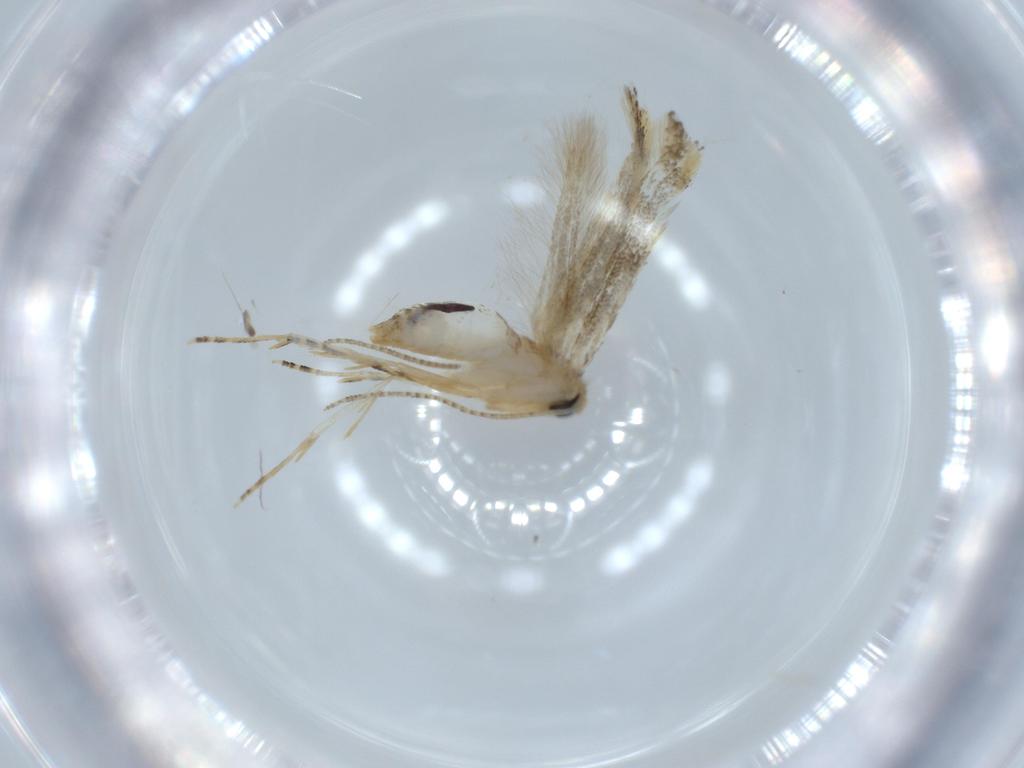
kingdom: Animalia
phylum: Arthropoda
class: Insecta
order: Lepidoptera
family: Bucculatricidae
